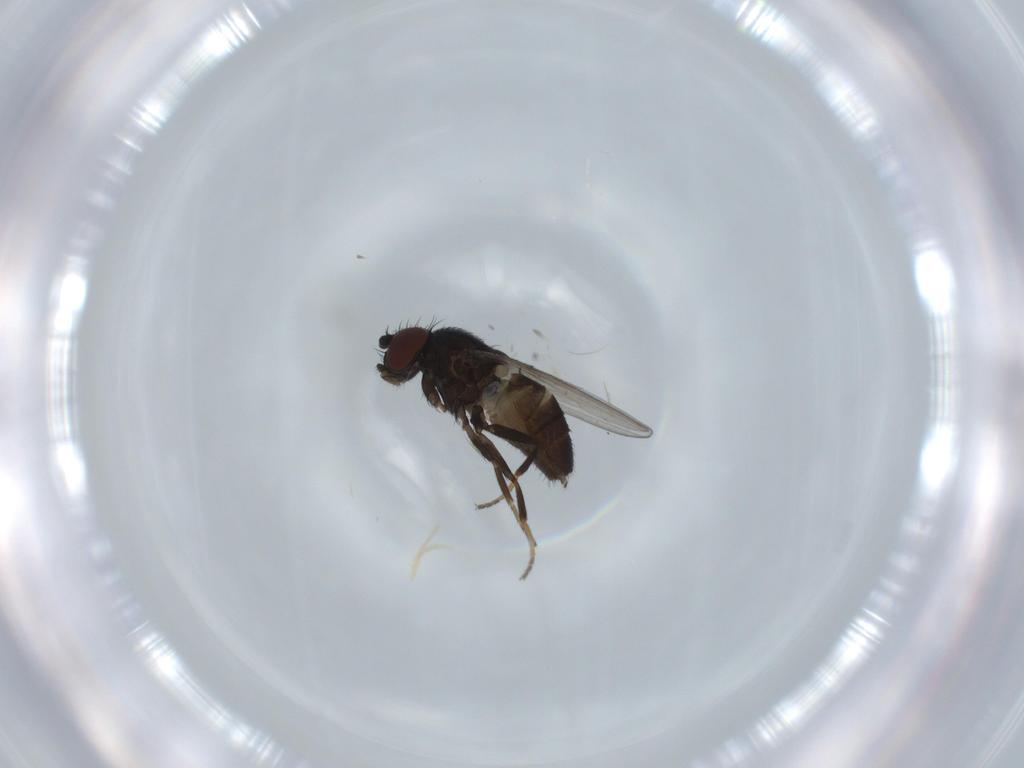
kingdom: Animalia
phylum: Arthropoda
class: Insecta
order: Diptera
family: Milichiidae
